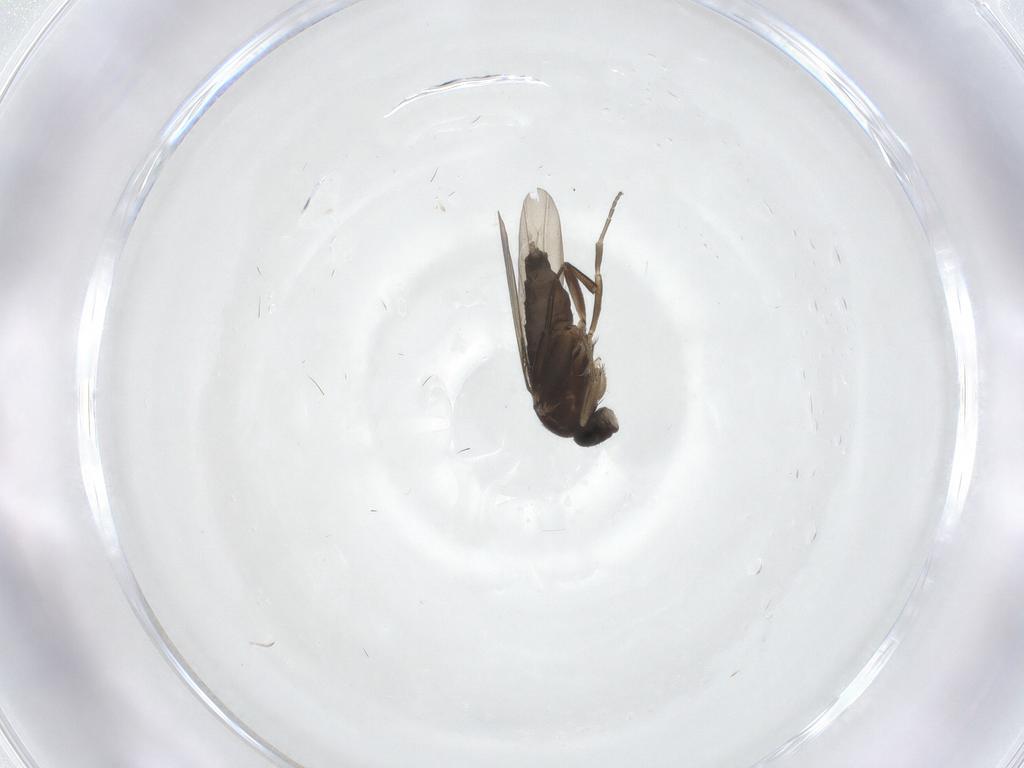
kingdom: Animalia
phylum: Arthropoda
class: Insecta
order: Diptera
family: Phoridae
